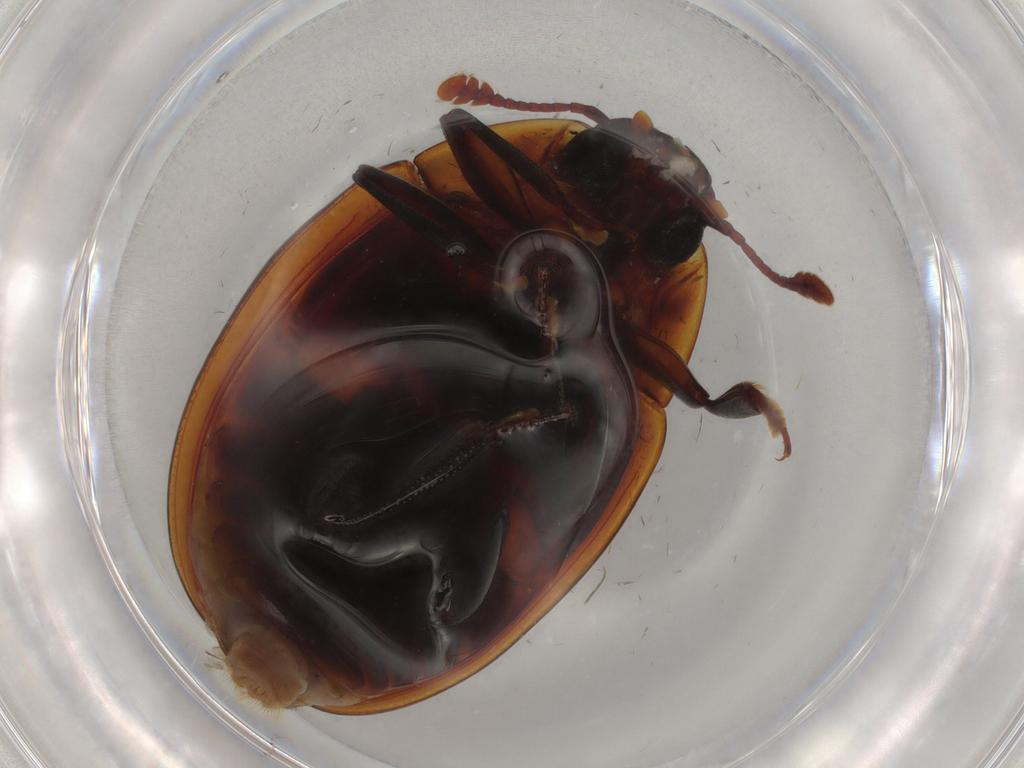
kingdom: Animalia
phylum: Arthropoda
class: Insecta
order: Coleoptera
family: Zopheridae
